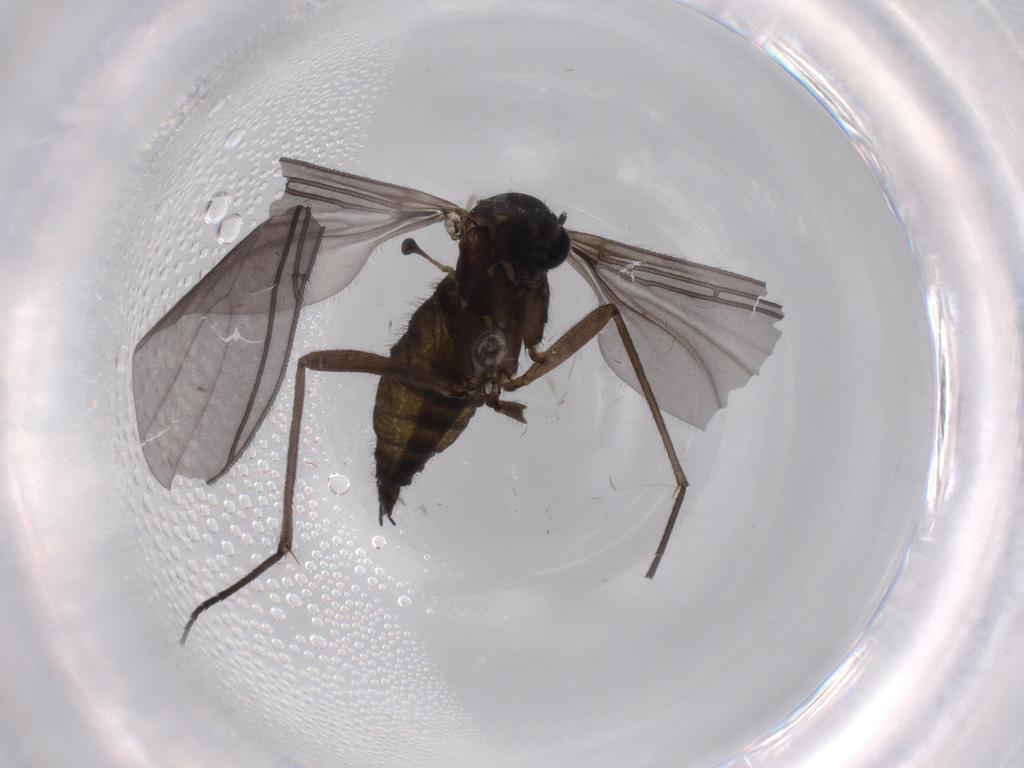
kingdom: Animalia
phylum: Arthropoda
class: Insecta
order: Diptera
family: Sciaridae
